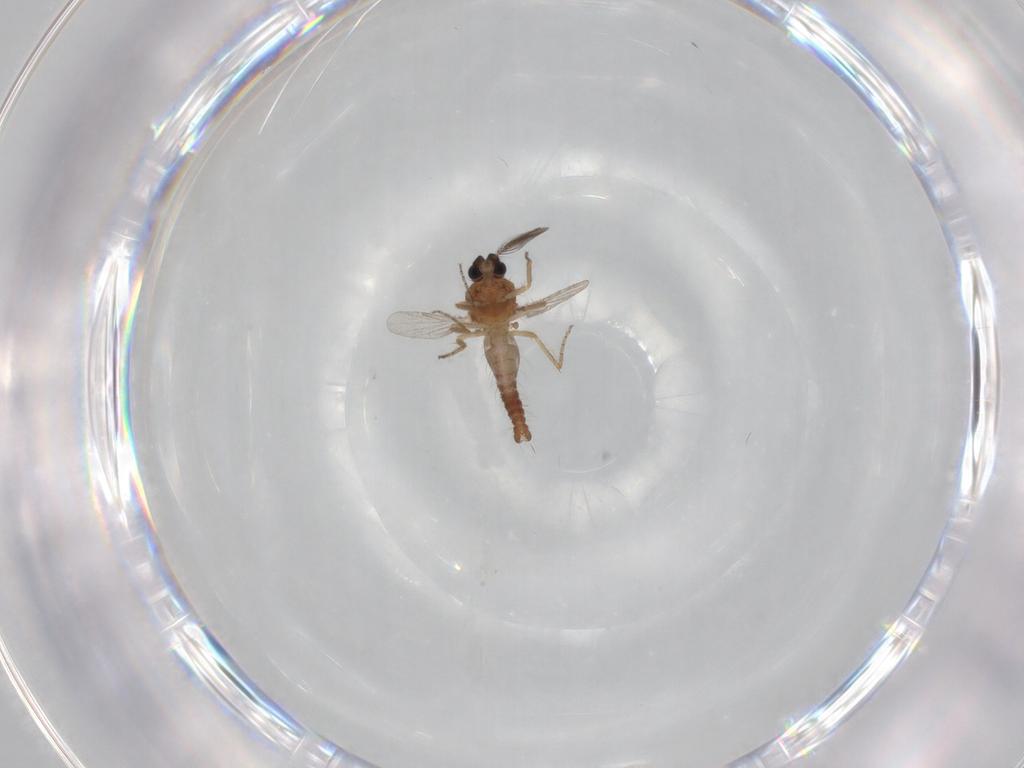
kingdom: Animalia
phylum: Arthropoda
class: Insecta
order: Diptera
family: Ceratopogonidae
